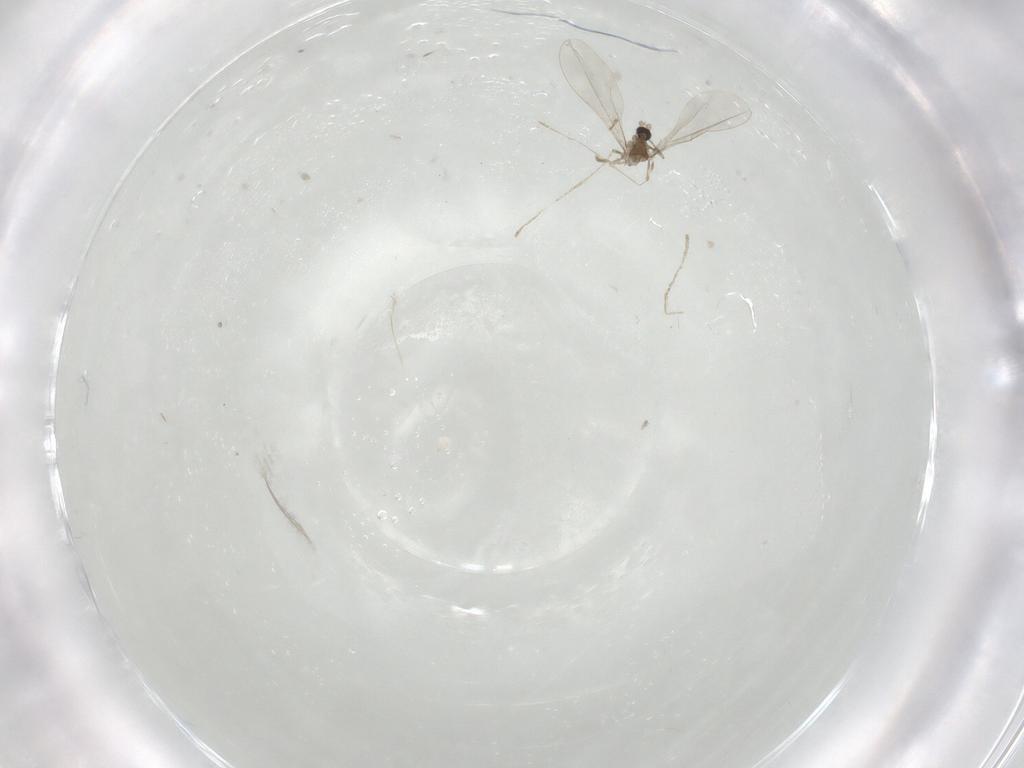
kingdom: Animalia
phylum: Arthropoda
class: Insecta
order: Diptera
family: Cecidomyiidae
